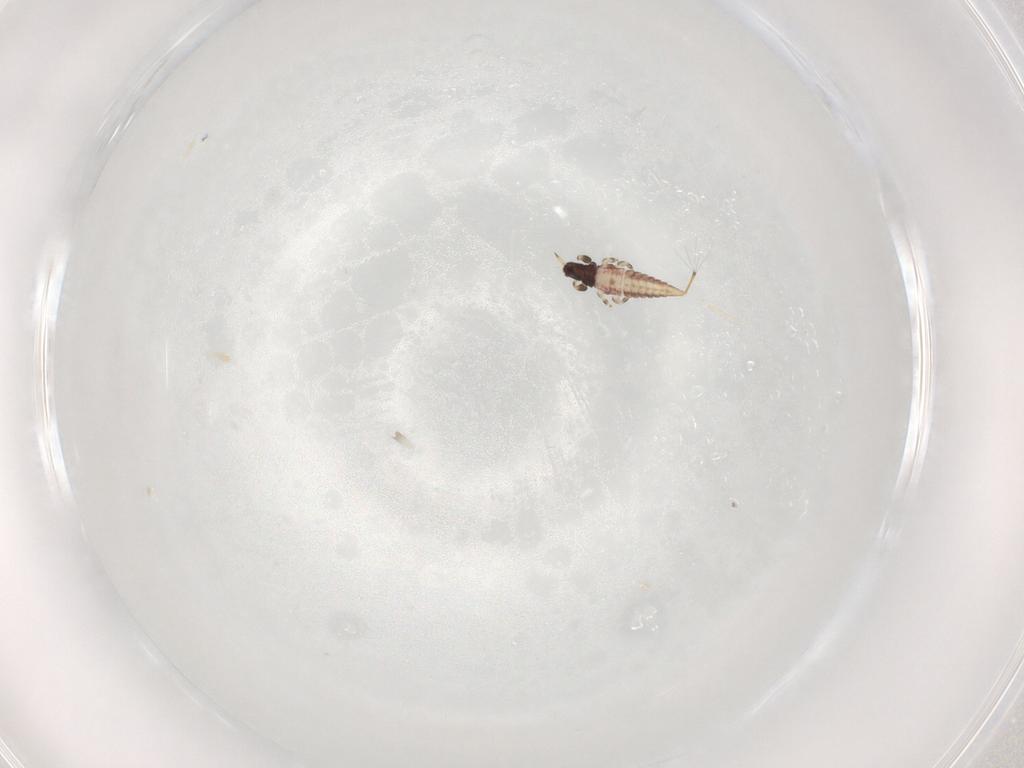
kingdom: Animalia
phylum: Arthropoda
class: Insecta
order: Thysanoptera
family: Phlaeothripidae
